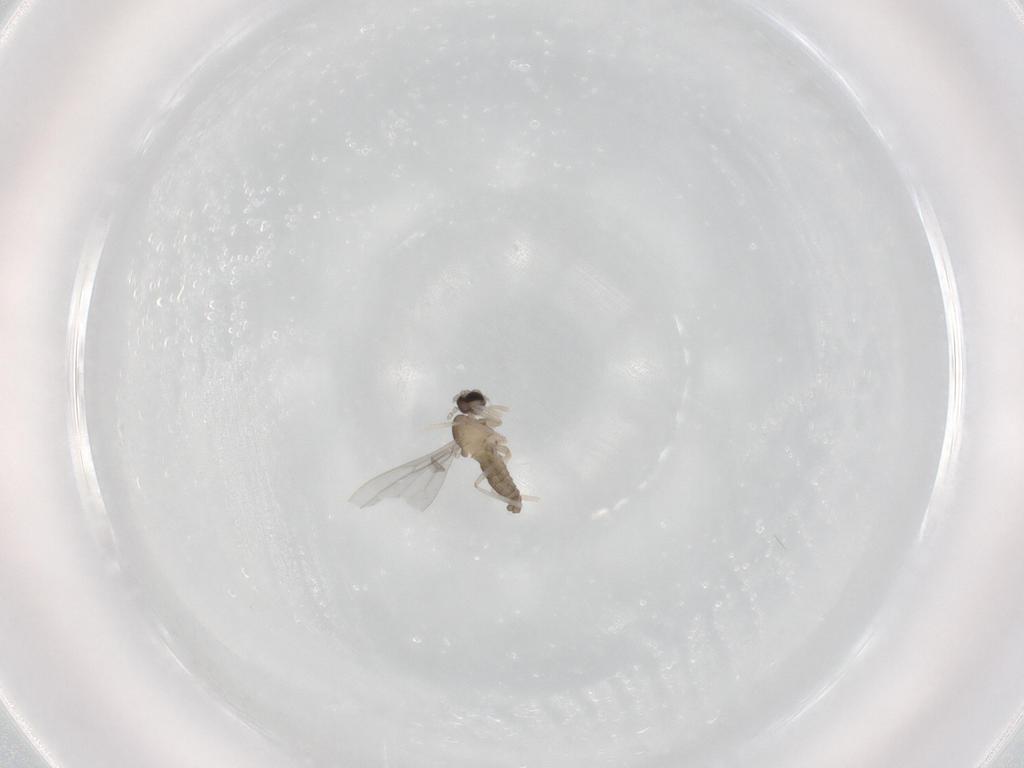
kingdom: Animalia
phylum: Arthropoda
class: Insecta
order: Diptera
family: Cecidomyiidae
